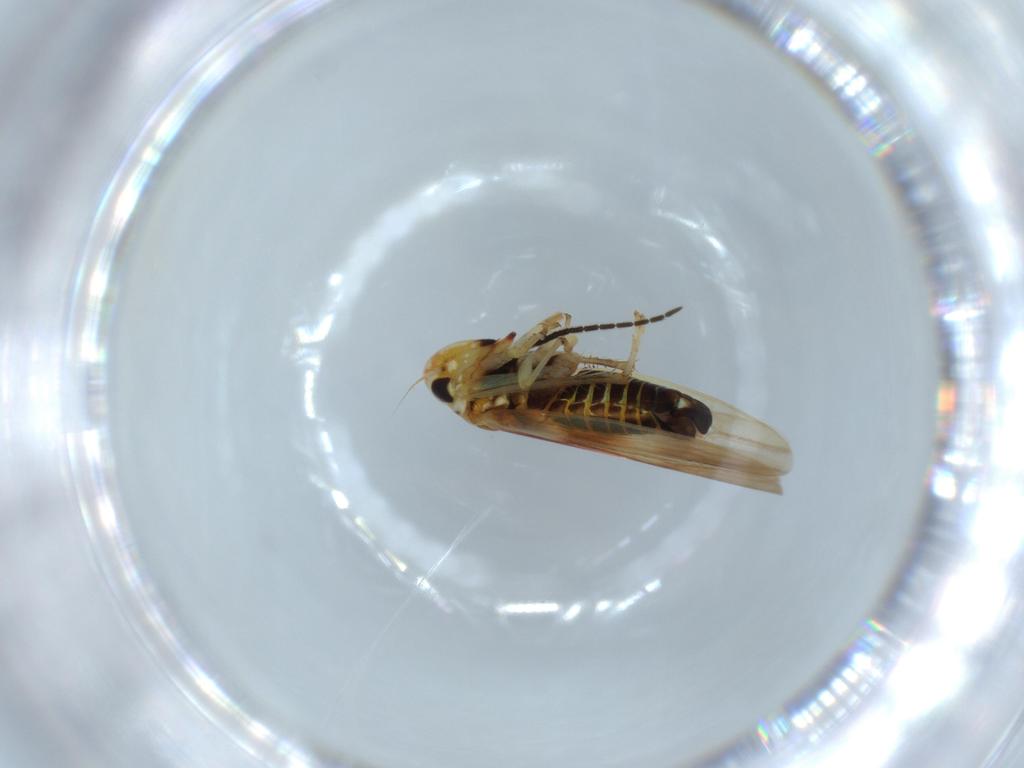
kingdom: Animalia
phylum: Arthropoda
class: Insecta
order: Hemiptera
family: Cicadellidae
